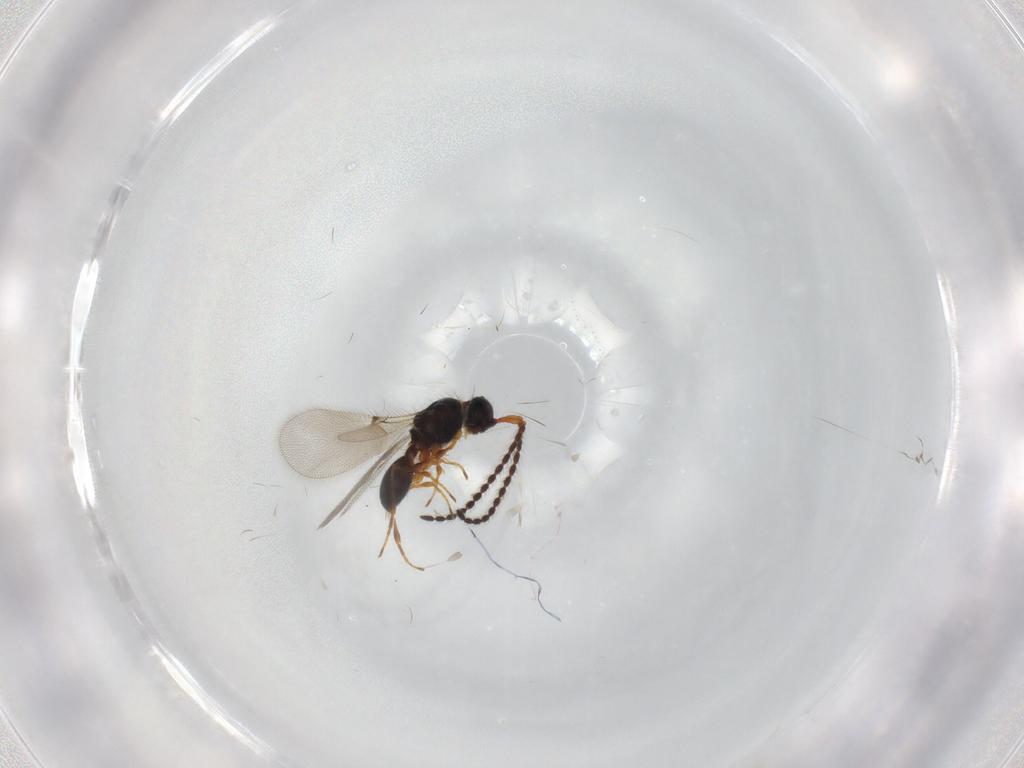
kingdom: Animalia
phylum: Arthropoda
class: Insecta
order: Hymenoptera
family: Diapriidae
